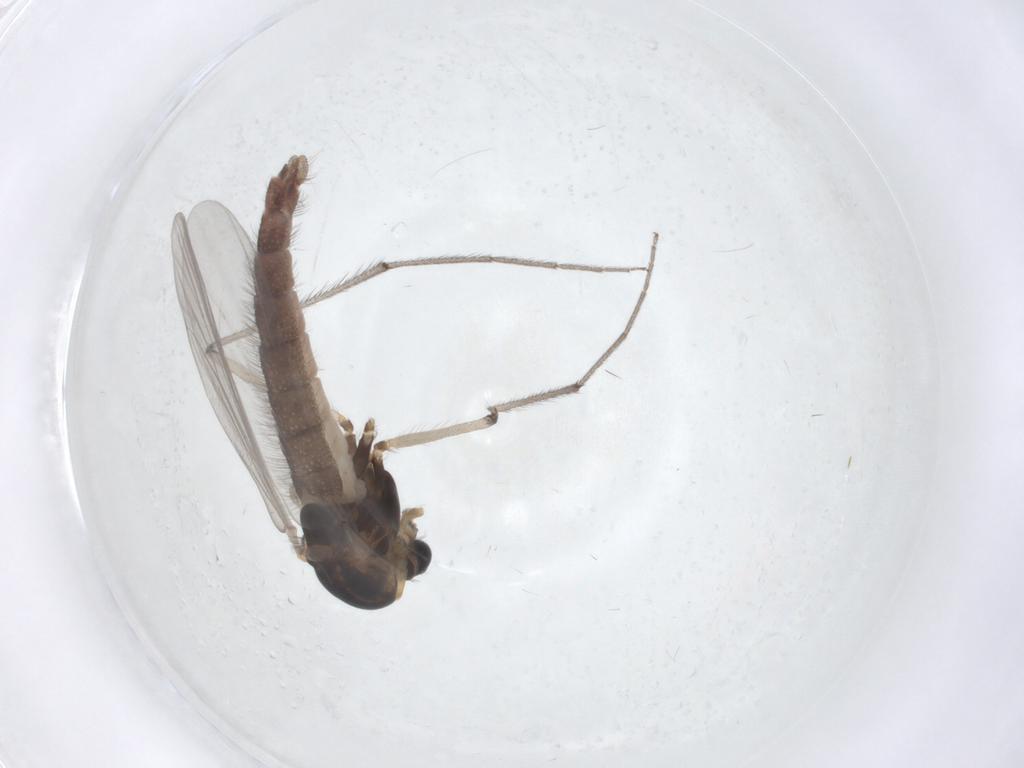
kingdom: Animalia
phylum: Arthropoda
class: Insecta
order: Diptera
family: Chironomidae
